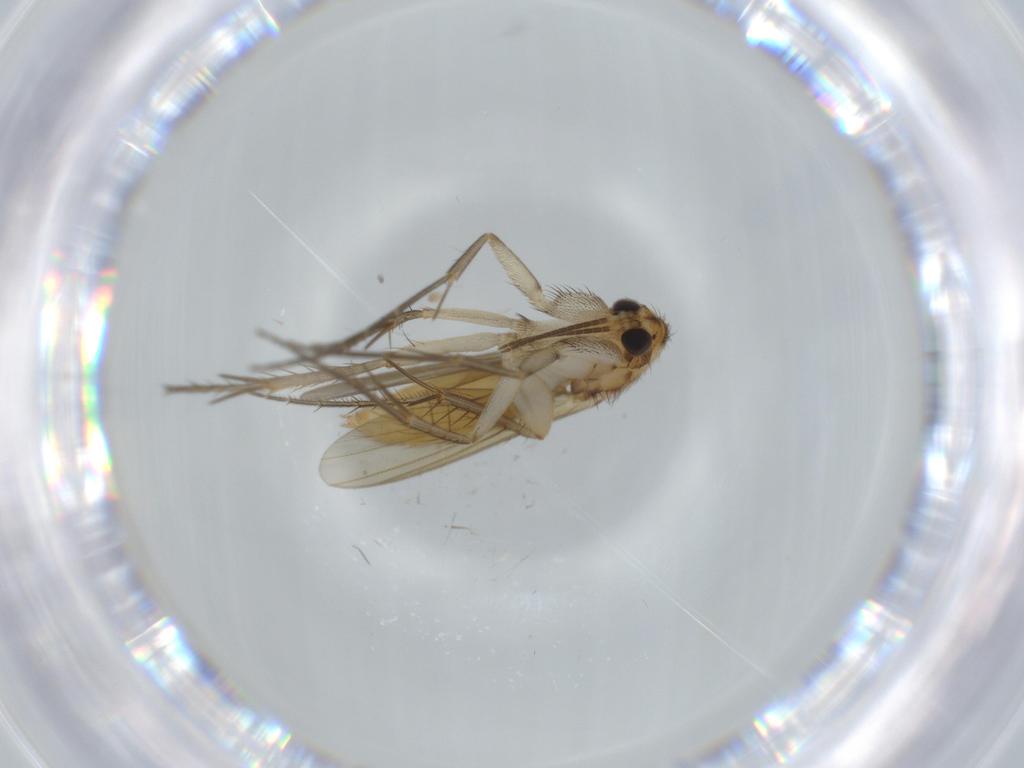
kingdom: Animalia
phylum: Arthropoda
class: Insecta
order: Diptera
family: Mycetophilidae
